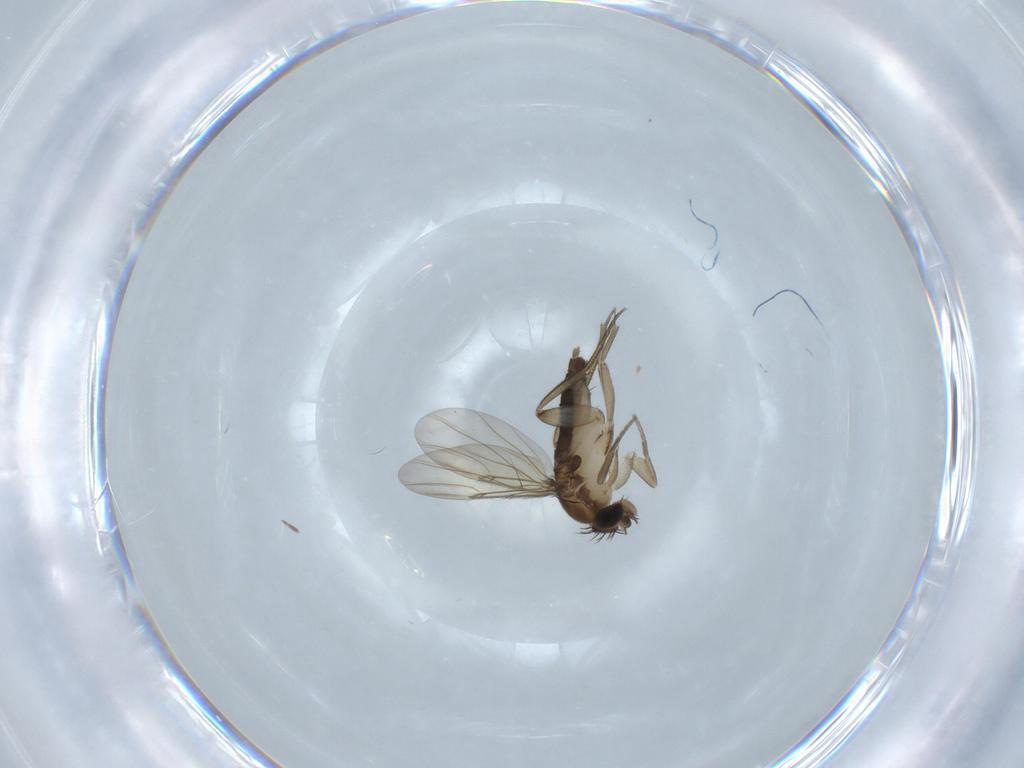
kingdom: Animalia
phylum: Arthropoda
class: Insecta
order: Diptera
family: Phoridae
